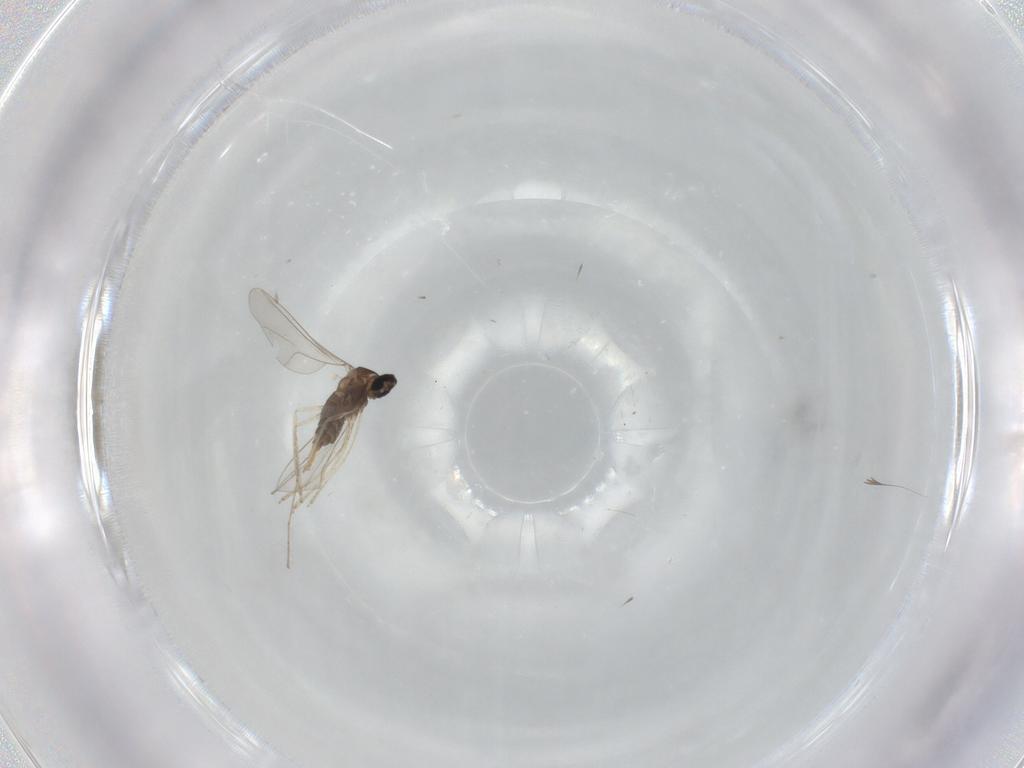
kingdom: Animalia
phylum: Arthropoda
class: Insecta
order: Diptera
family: Cecidomyiidae
